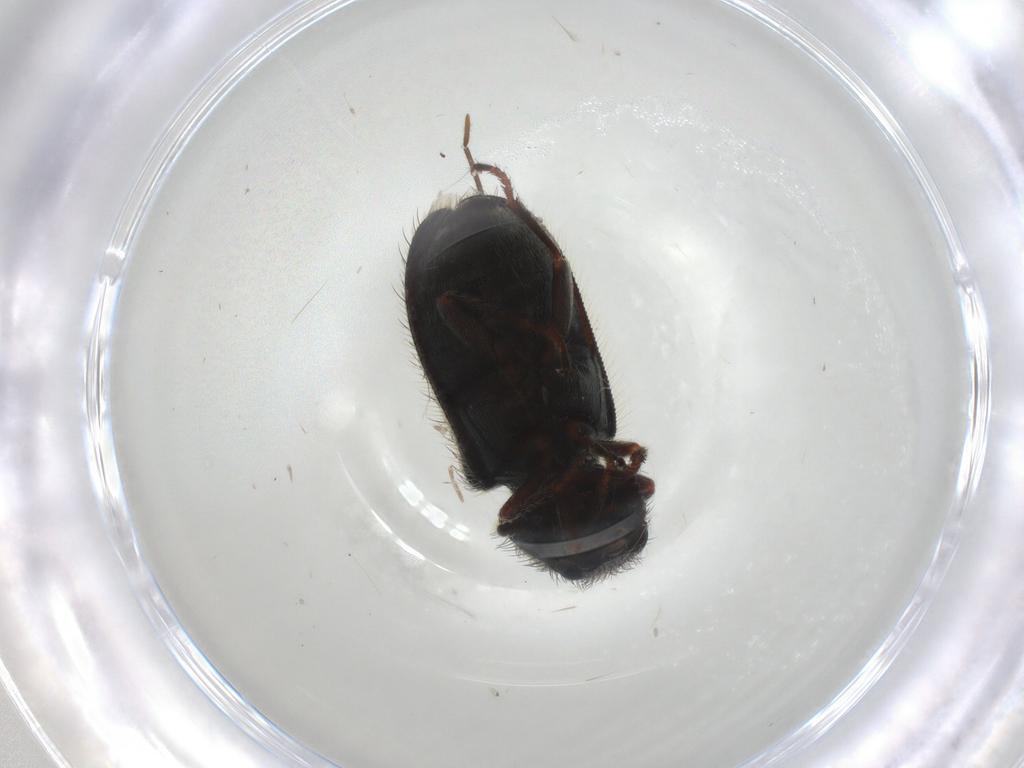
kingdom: Animalia
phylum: Arthropoda
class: Insecta
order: Coleoptera
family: Melyridae
